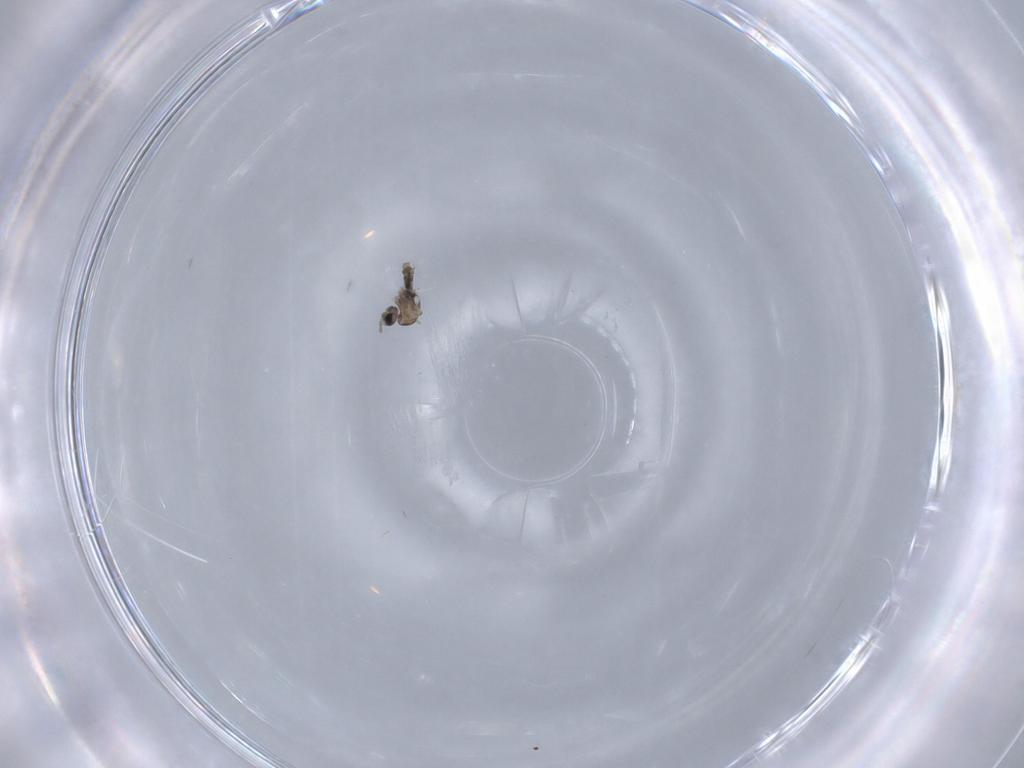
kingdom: Animalia
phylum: Arthropoda
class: Insecta
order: Diptera
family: Cecidomyiidae
